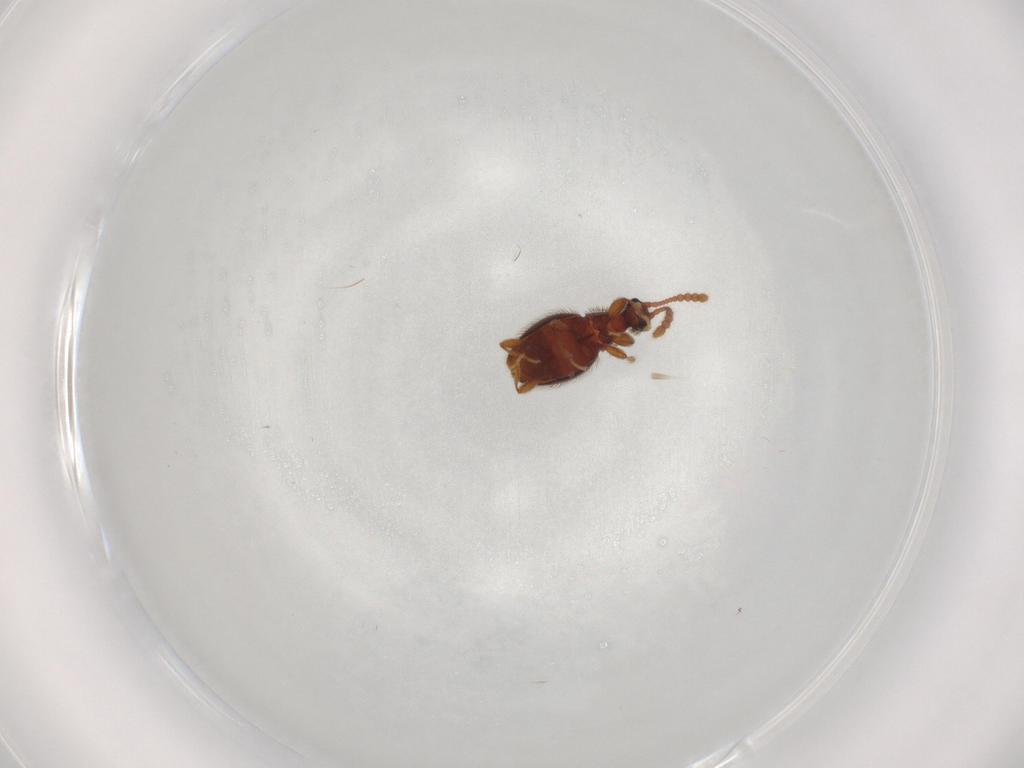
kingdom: Animalia
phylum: Arthropoda
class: Insecta
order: Coleoptera
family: Staphylinidae
